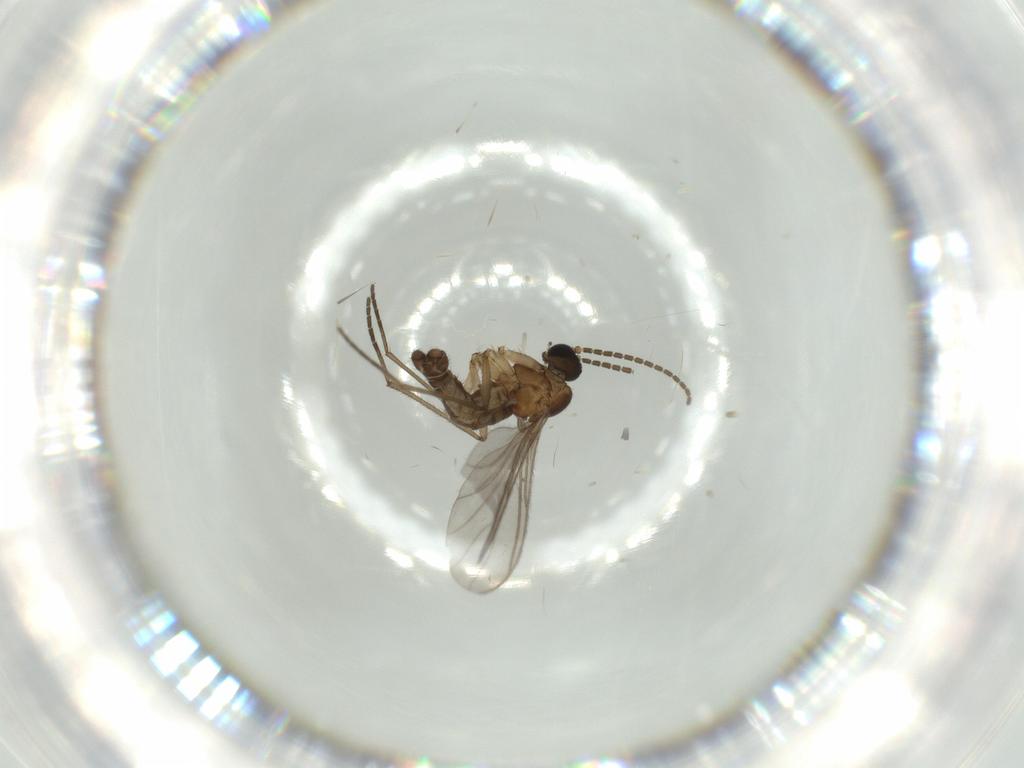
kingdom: Animalia
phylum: Arthropoda
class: Insecta
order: Diptera
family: Sciaridae
